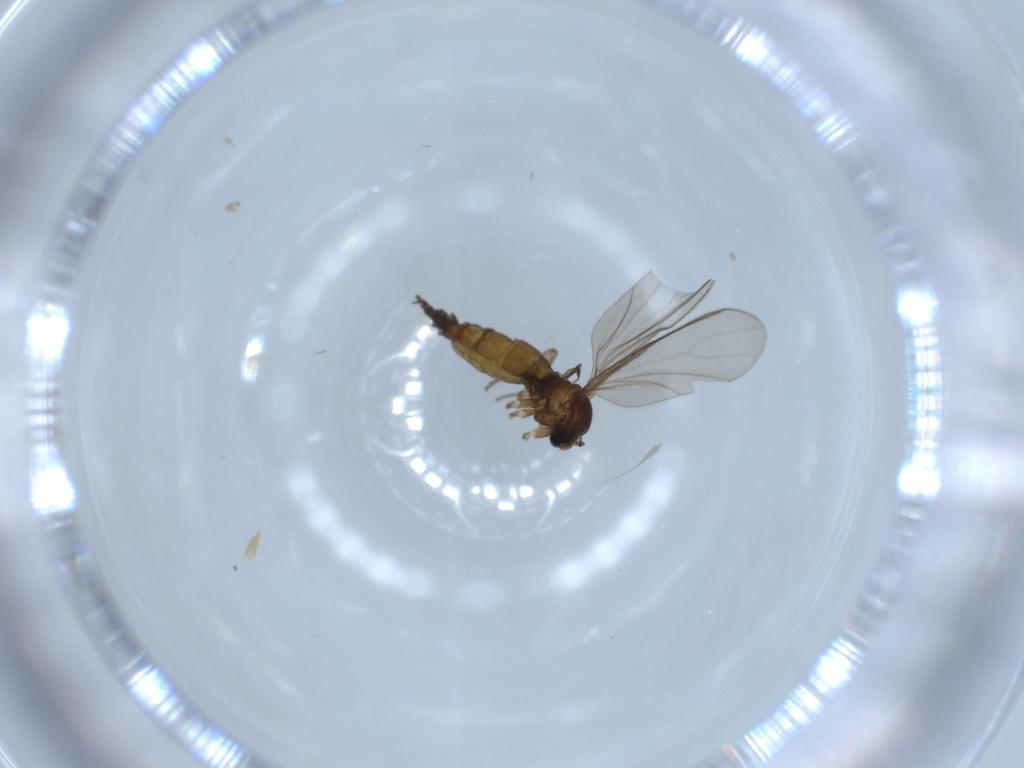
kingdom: Animalia
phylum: Arthropoda
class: Insecta
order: Diptera
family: Sciaridae
